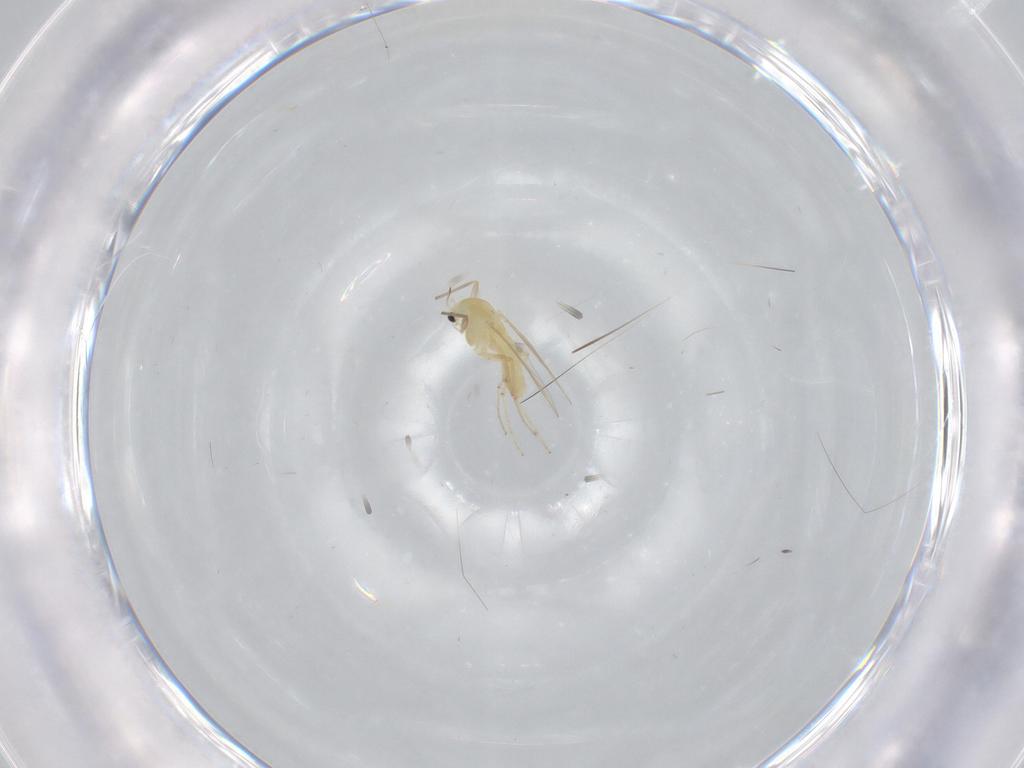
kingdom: Animalia
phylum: Arthropoda
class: Insecta
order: Diptera
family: Chironomidae
